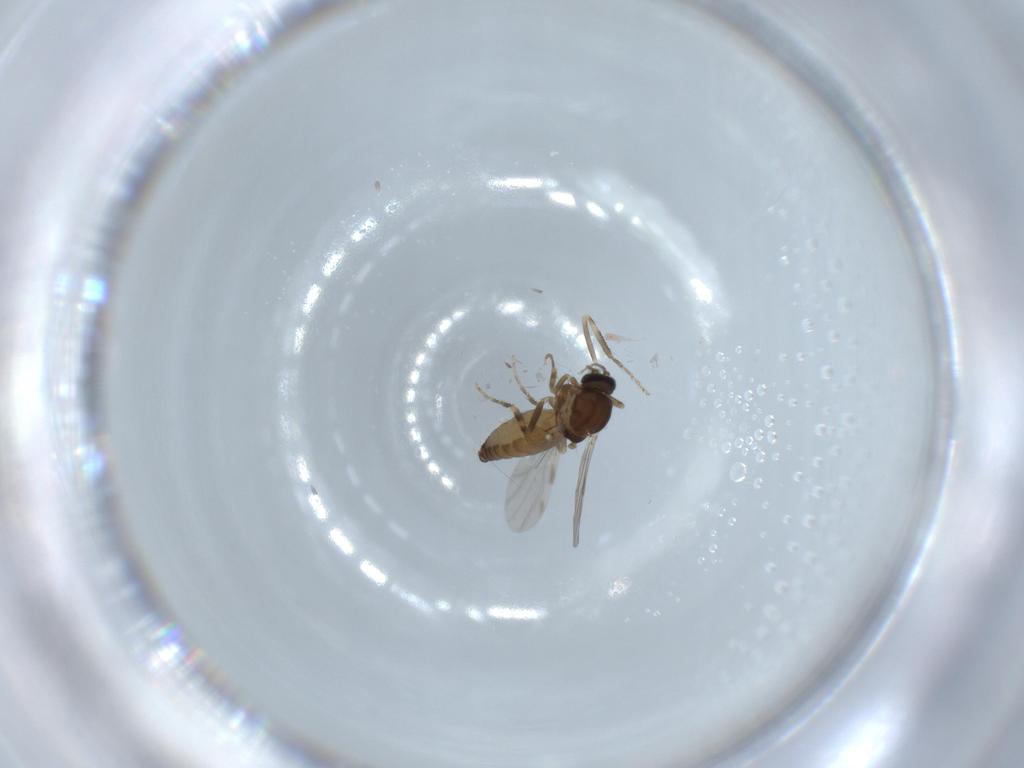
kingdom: Animalia
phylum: Arthropoda
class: Insecta
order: Diptera
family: Ceratopogonidae
